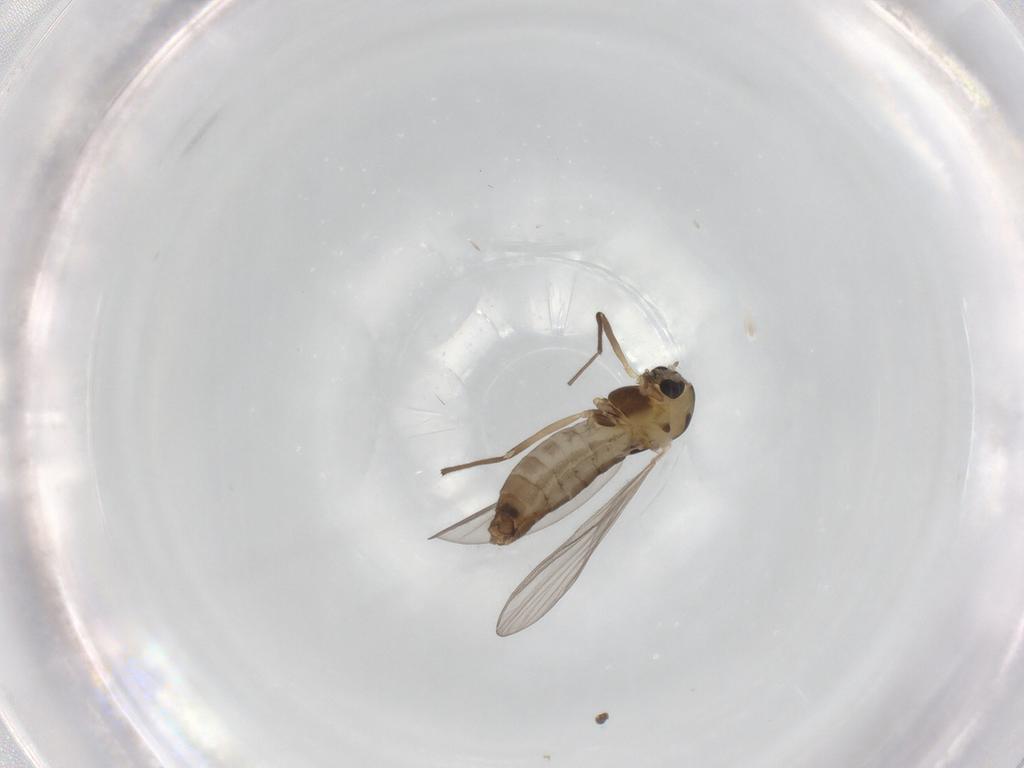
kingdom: Animalia
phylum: Arthropoda
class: Insecta
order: Diptera
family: Chironomidae
